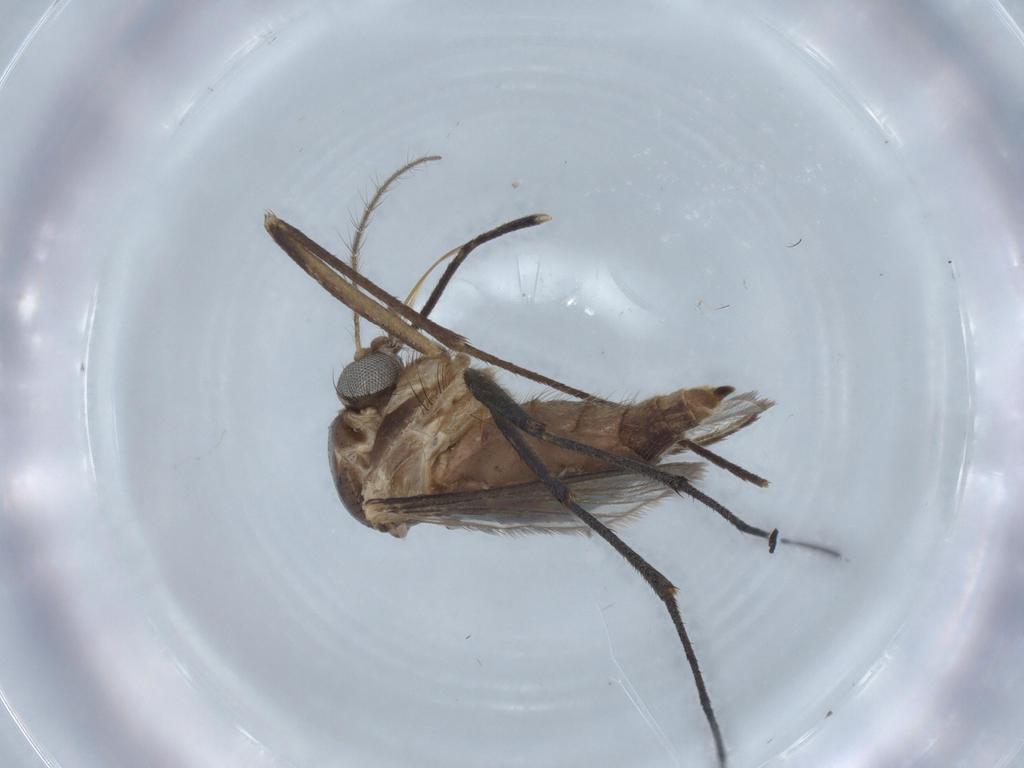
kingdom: Animalia
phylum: Arthropoda
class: Insecta
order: Diptera
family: Culicidae
